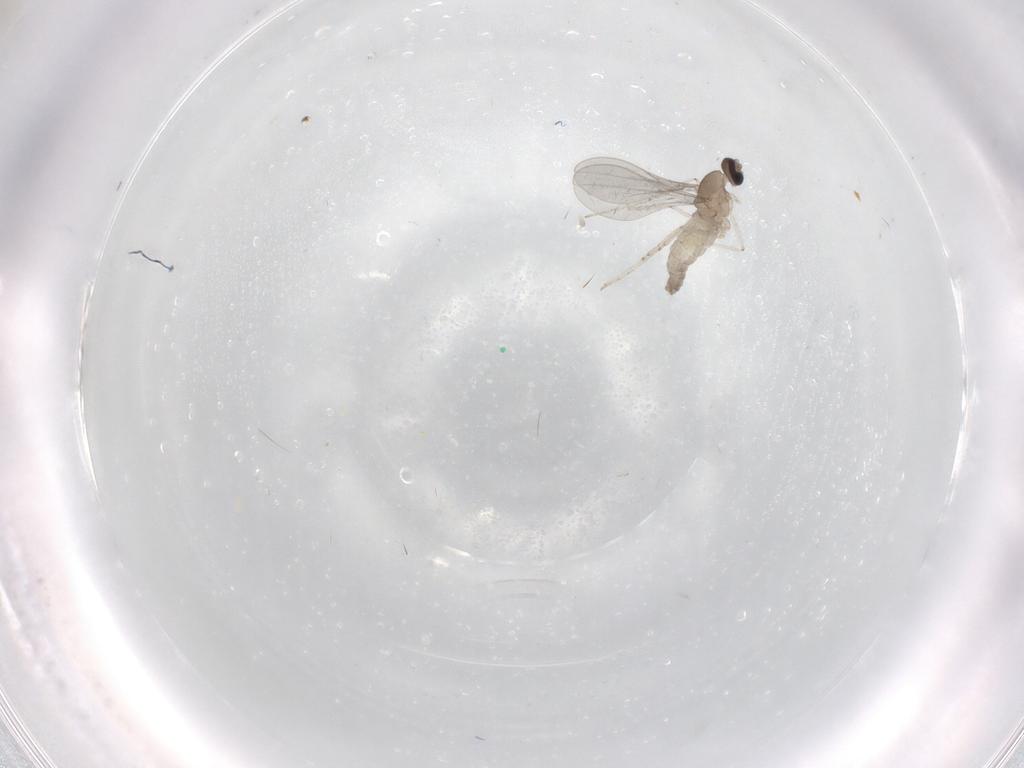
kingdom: Animalia
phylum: Arthropoda
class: Insecta
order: Diptera
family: Cecidomyiidae
